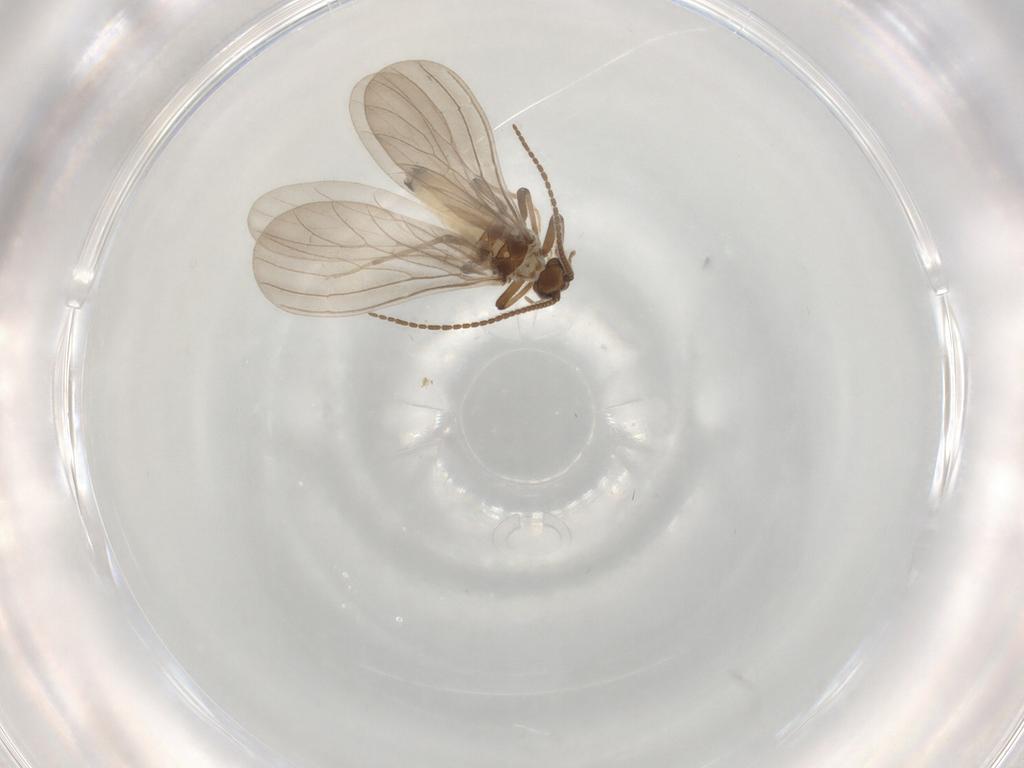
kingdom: Animalia
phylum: Arthropoda
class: Insecta
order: Neuroptera
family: Coniopterygidae
